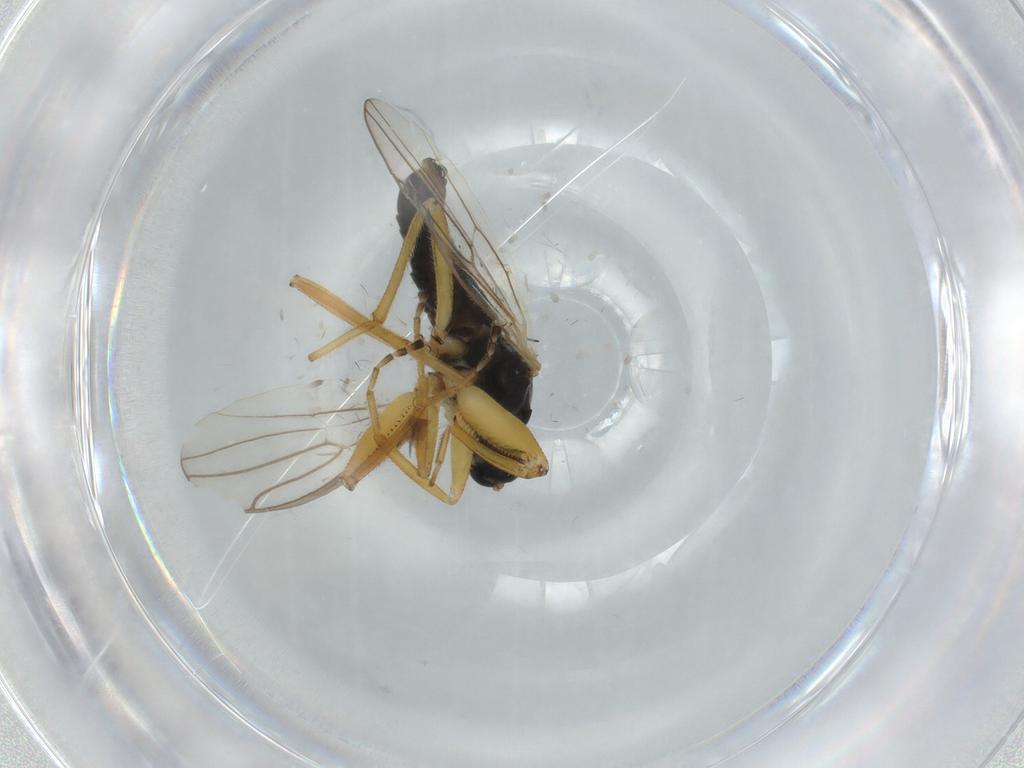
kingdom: Animalia
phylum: Arthropoda
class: Insecta
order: Diptera
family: Ceratopogonidae
